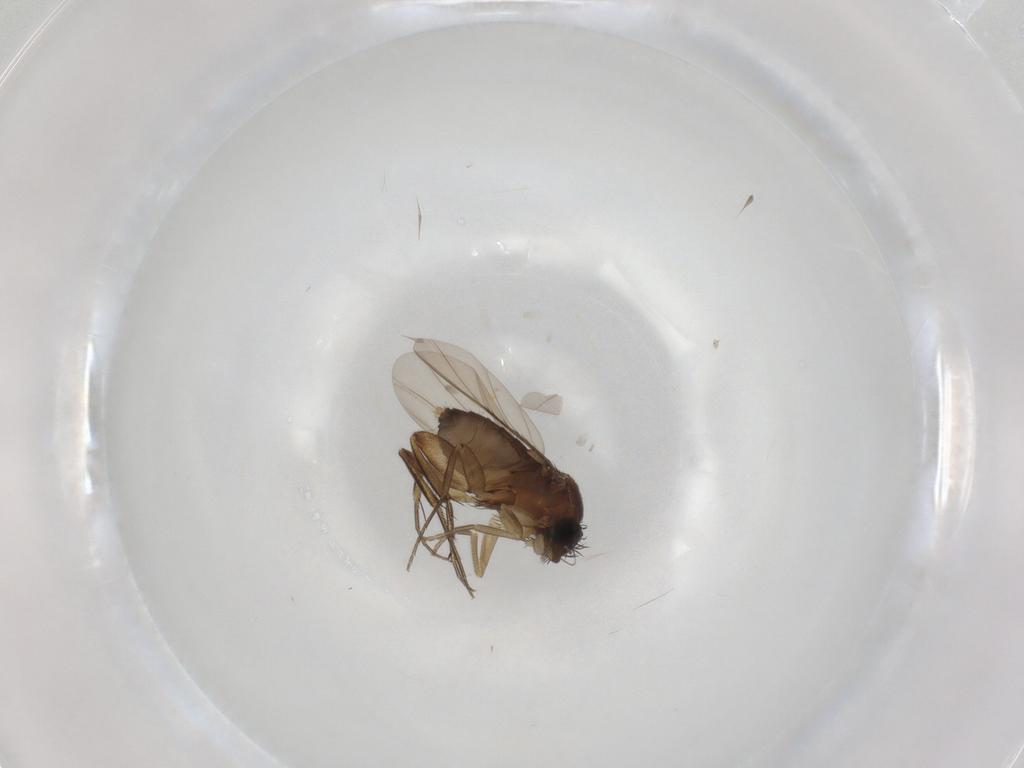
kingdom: Animalia
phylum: Arthropoda
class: Insecta
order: Diptera
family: Phoridae
